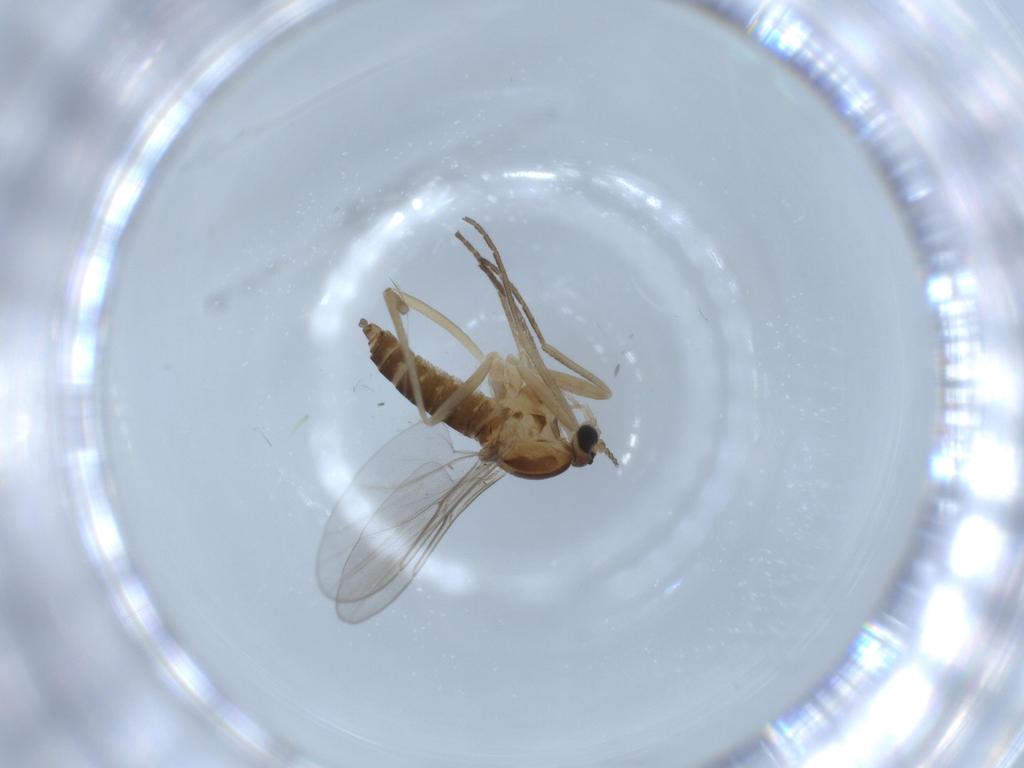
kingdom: Animalia
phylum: Arthropoda
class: Insecta
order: Diptera
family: Cecidomyiidae
